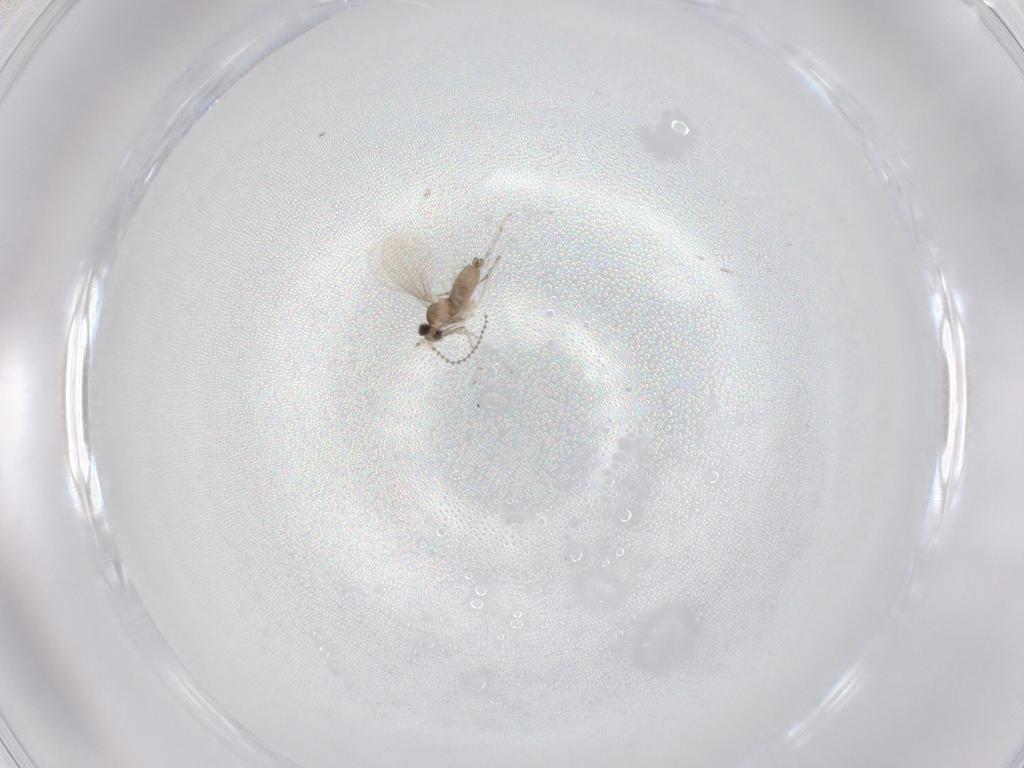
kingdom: Animalia
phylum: Arthropoda
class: Insecta
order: Diptera
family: Cecidomyiidae
